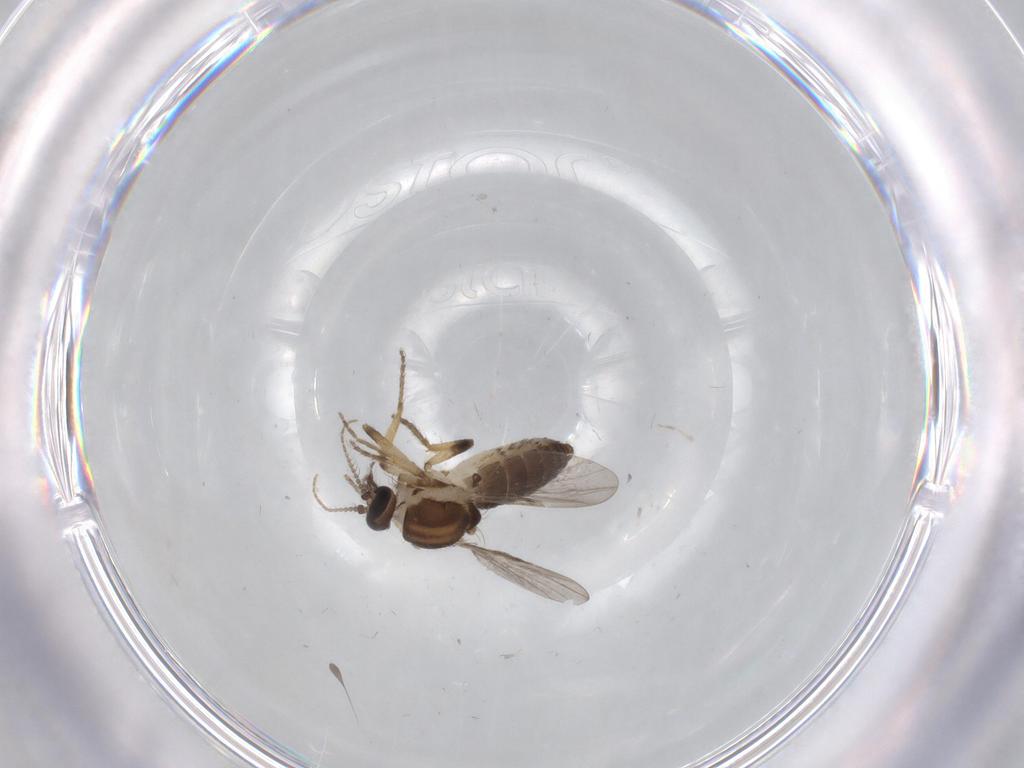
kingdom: Animalia
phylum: Arthropoda
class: Insecta
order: Diptera
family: Ceratopogonidae
